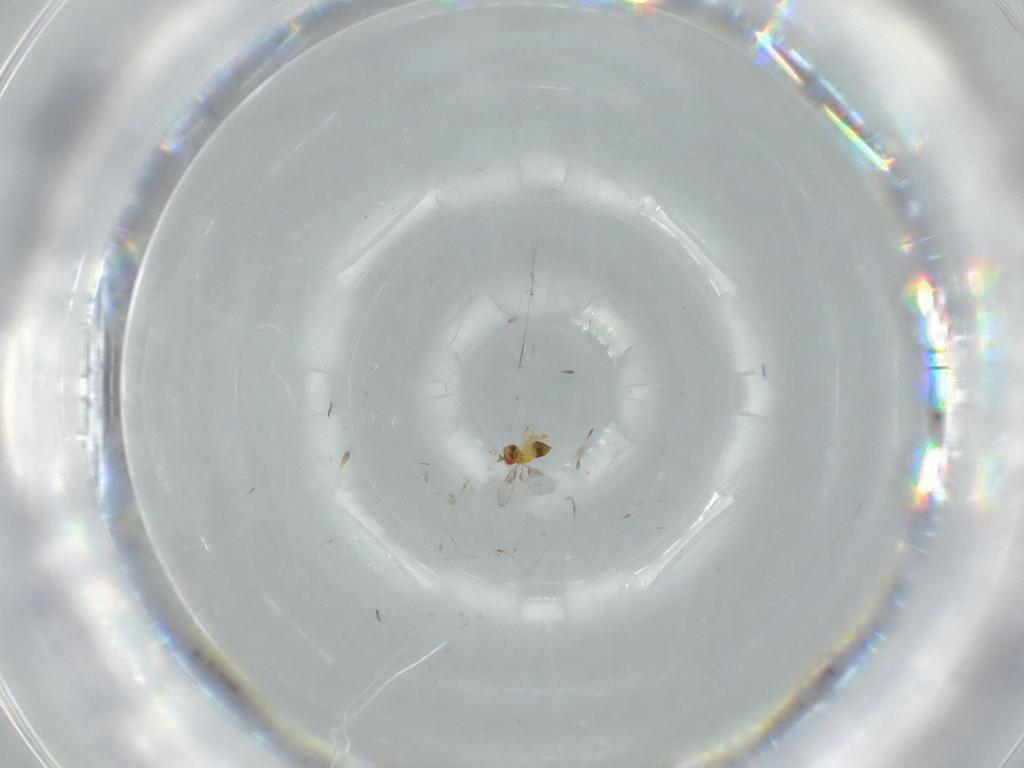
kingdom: Animalia
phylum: Arthropoda
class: Insecta
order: Hymenoptera
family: Trichogrammatidae
